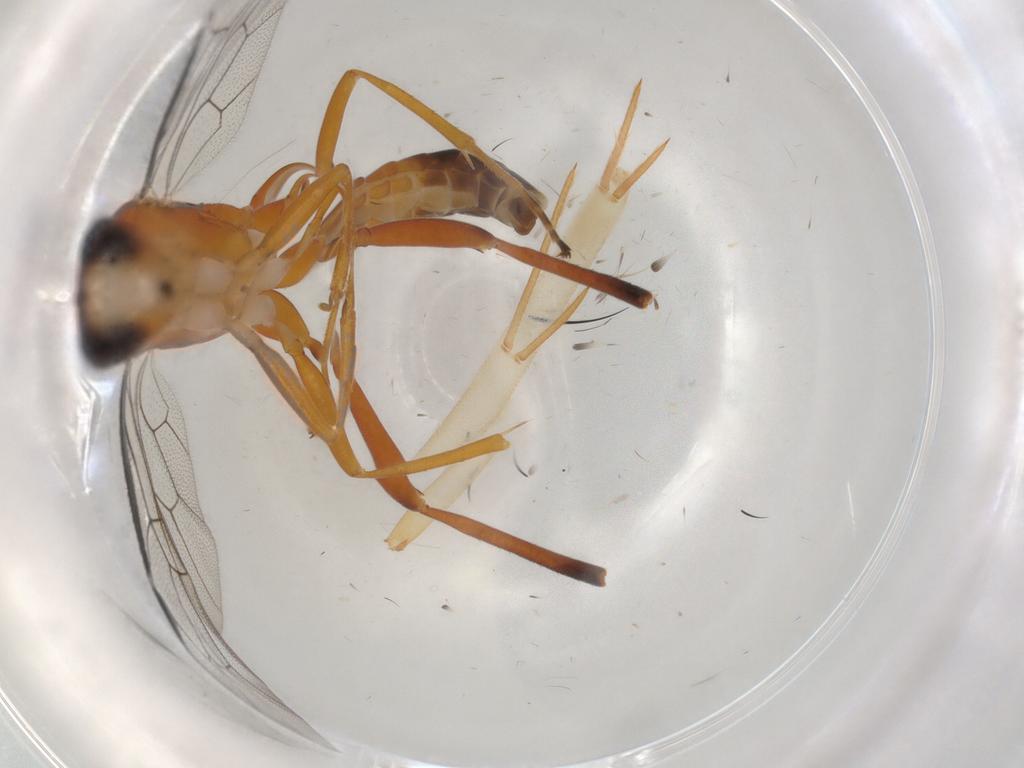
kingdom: Animalia
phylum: Arthropoda
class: Insecta
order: Hymenoptera
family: Ichneumonidae
